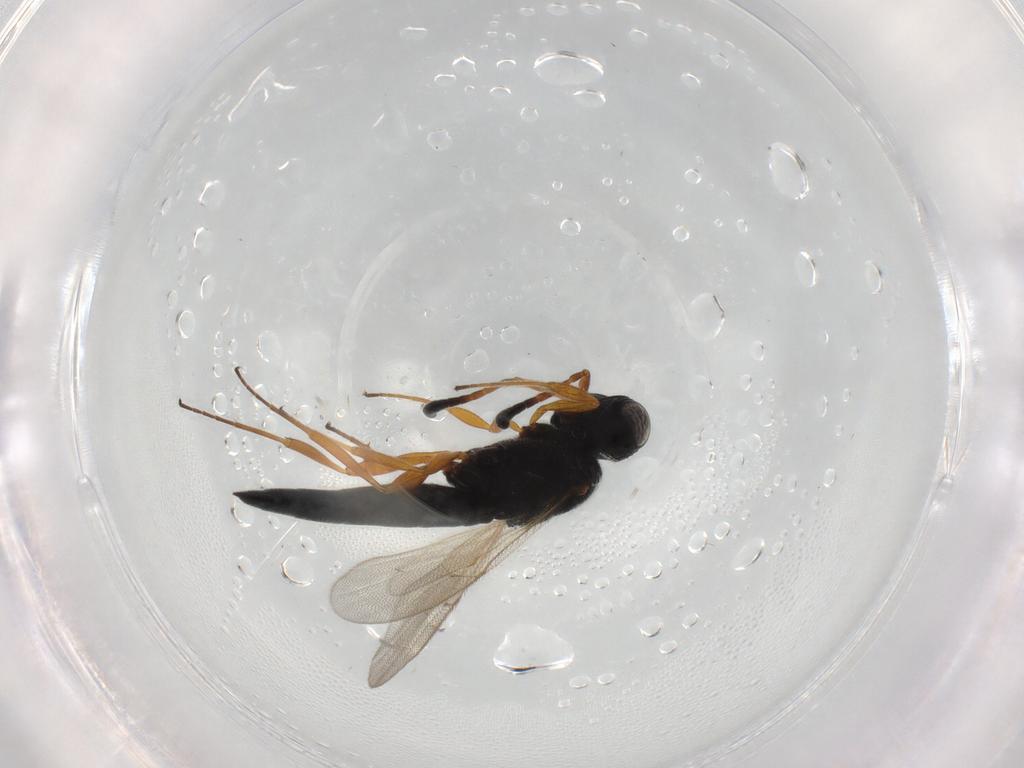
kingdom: Animalia
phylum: Arthropoda
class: Insecta
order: Hymenoptera
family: Scelionidae
